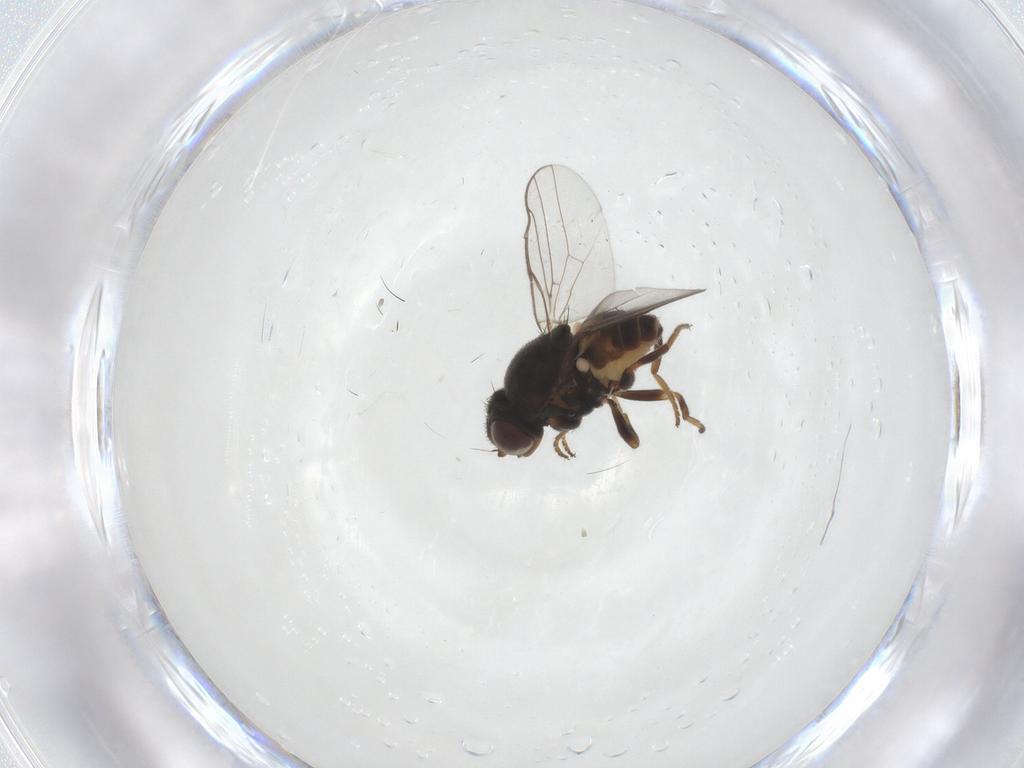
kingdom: Animalia
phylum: Arthropoda
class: Insecta
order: Diptera
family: Chloropidae
